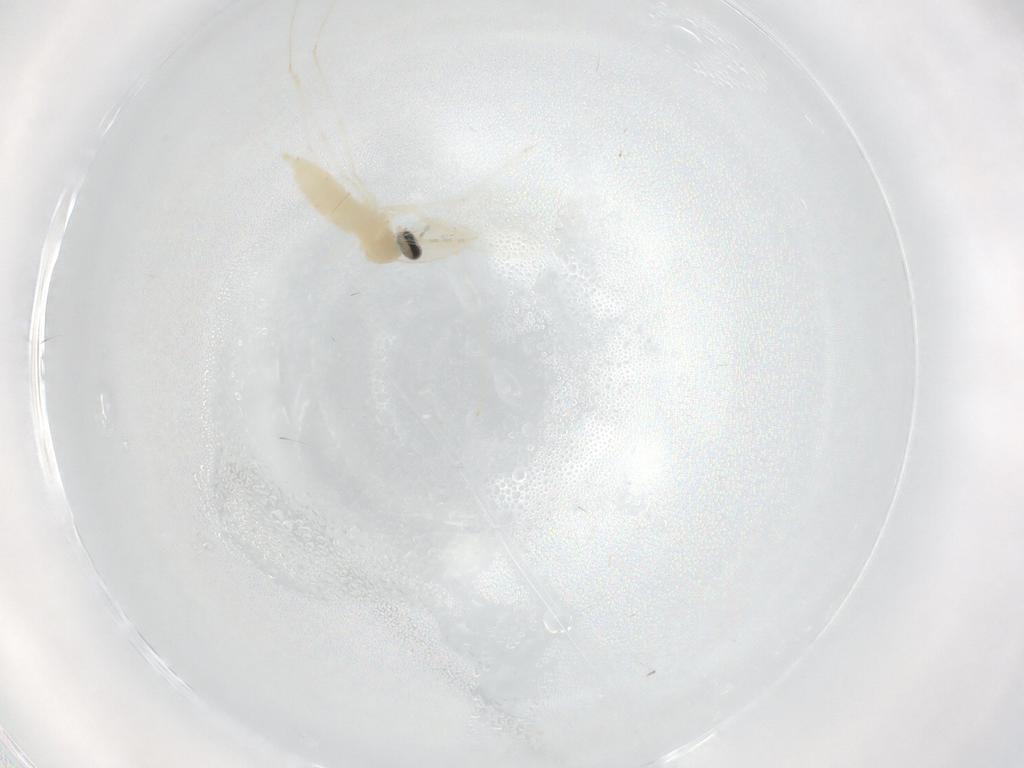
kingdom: Animalia
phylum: Arthropoda
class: Insecta
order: Diptera
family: Cecidomyiidae
